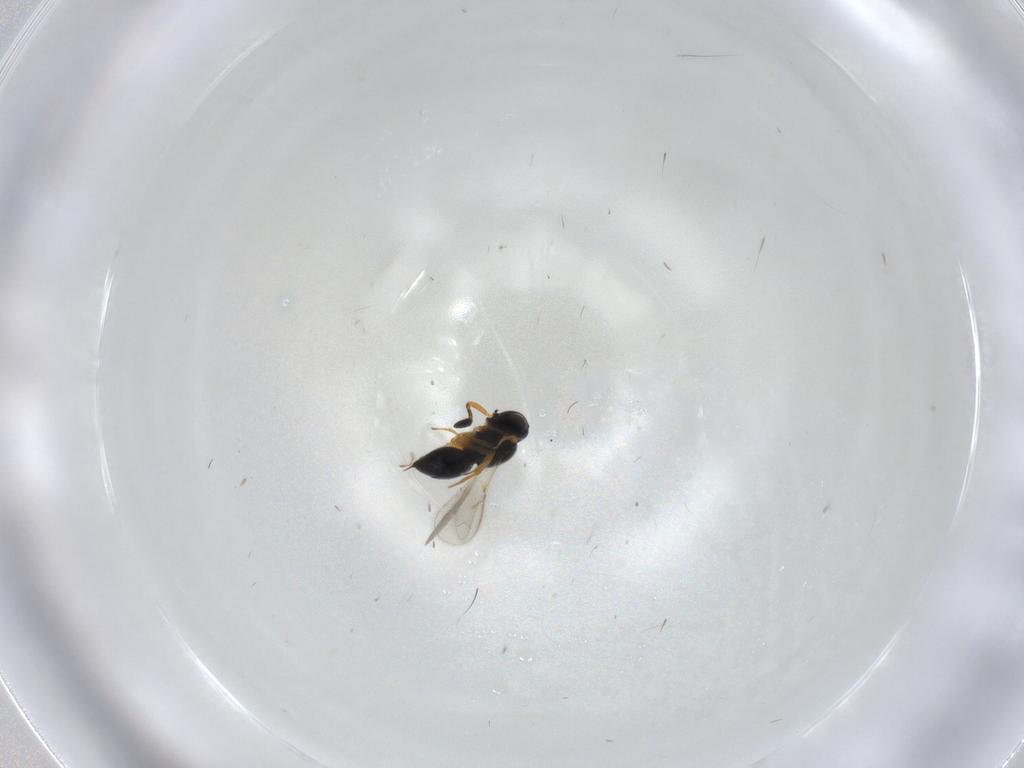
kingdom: Animalia
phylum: Arthropoda
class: Insecta
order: Hymenoptera
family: Scelionidae
